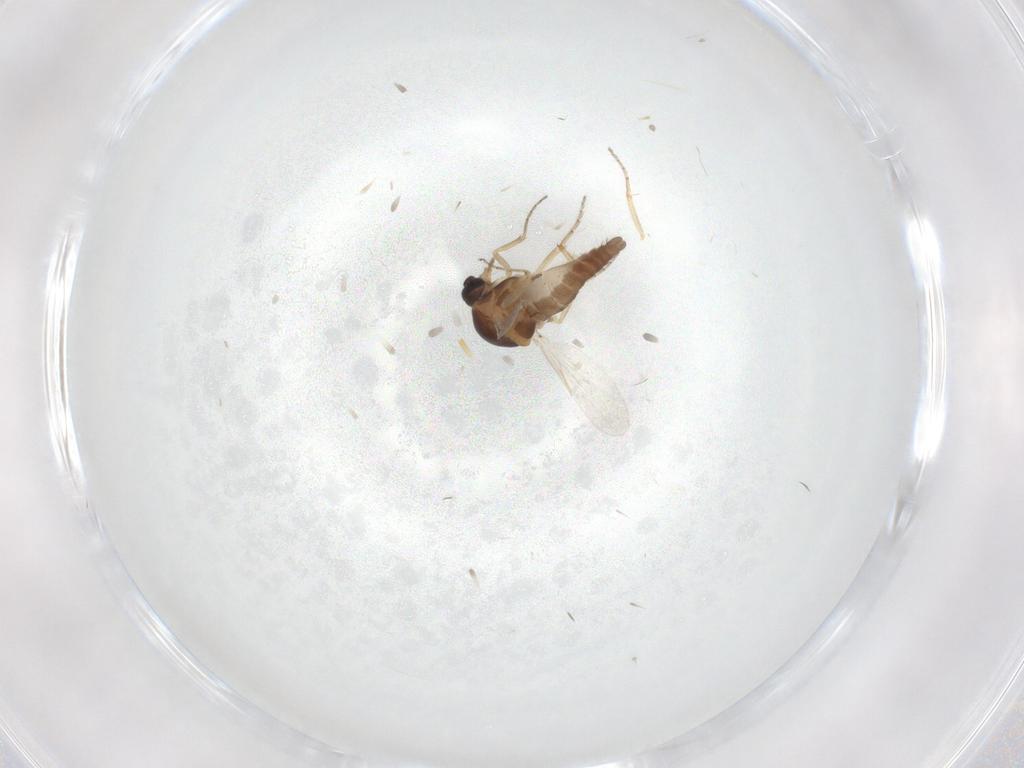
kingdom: Animalia
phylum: Arthropoda
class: Insecta
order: Diptera
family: Ceratopogonidae
